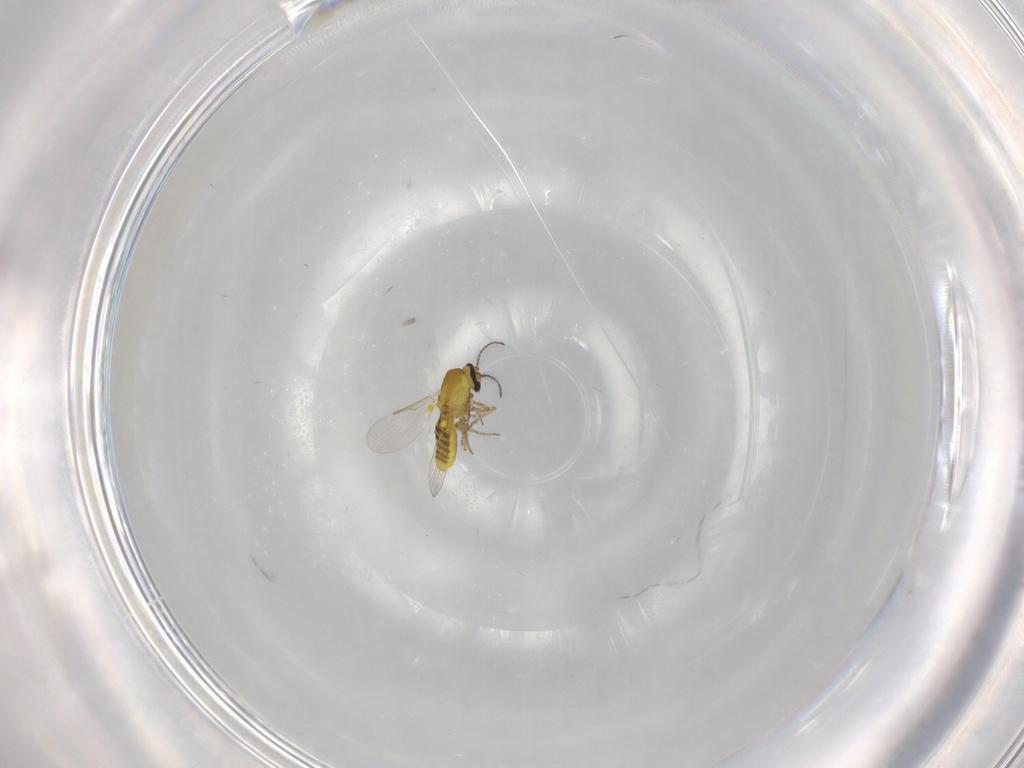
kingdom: Animalia
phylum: Arthropoda
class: Insecta
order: Diptera
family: Ceratopogonidae
